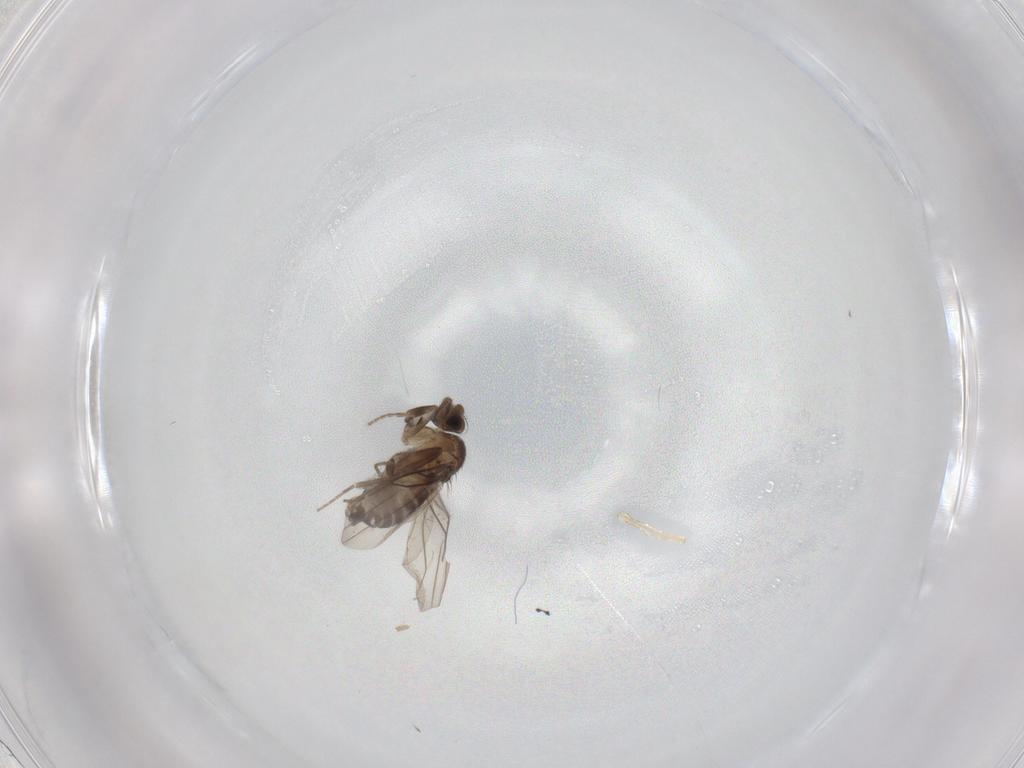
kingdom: Animalia
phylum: Arthropoda
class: Insecta
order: Diptera
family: Phoridae
